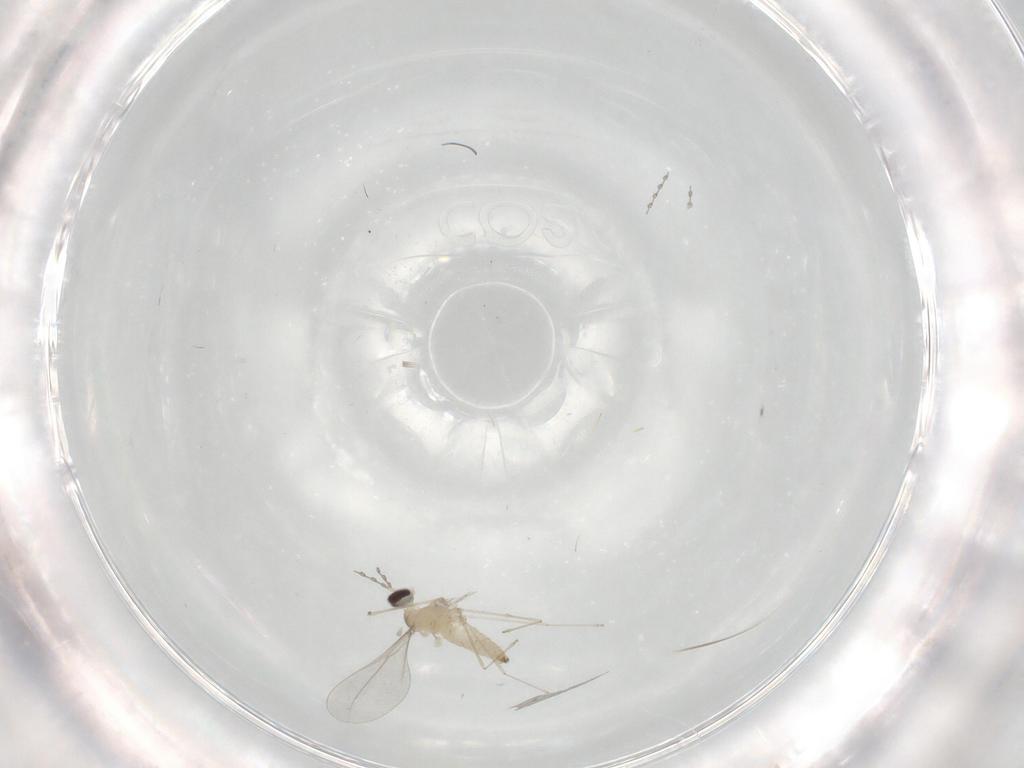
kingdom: Animalia
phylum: Arthropoda
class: Insecta
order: Diptera
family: Cecidomyiidae
